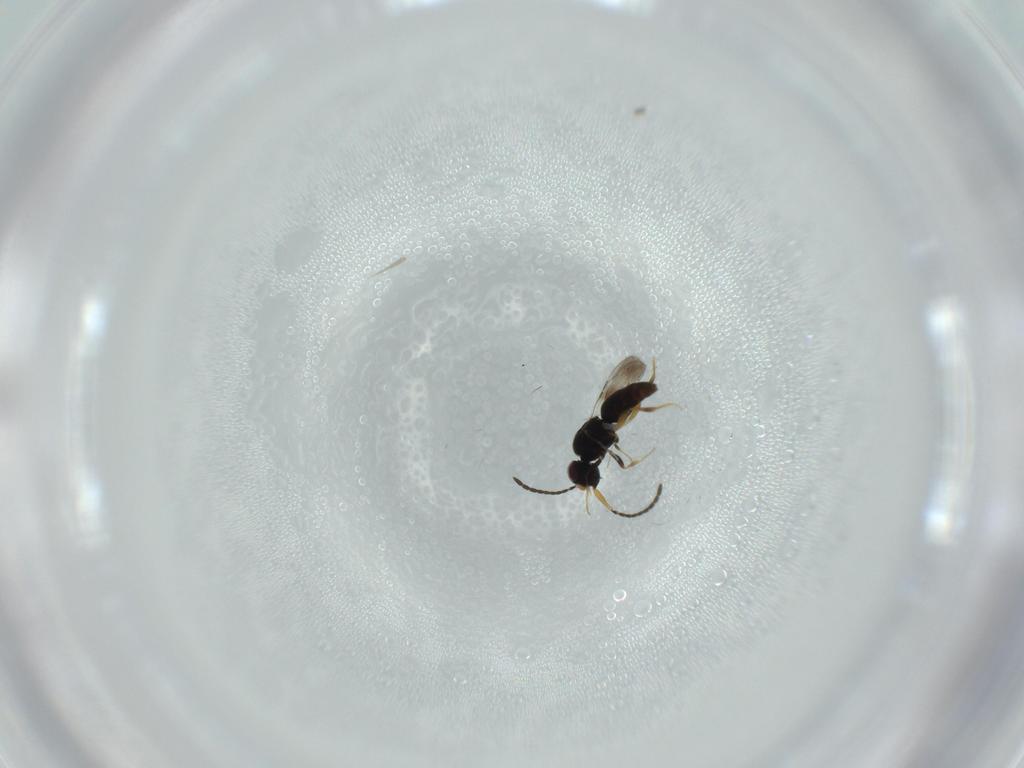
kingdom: Animalia
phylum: Arthropoda
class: Insecta
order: Hymenoptera
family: Ceraphronidae
